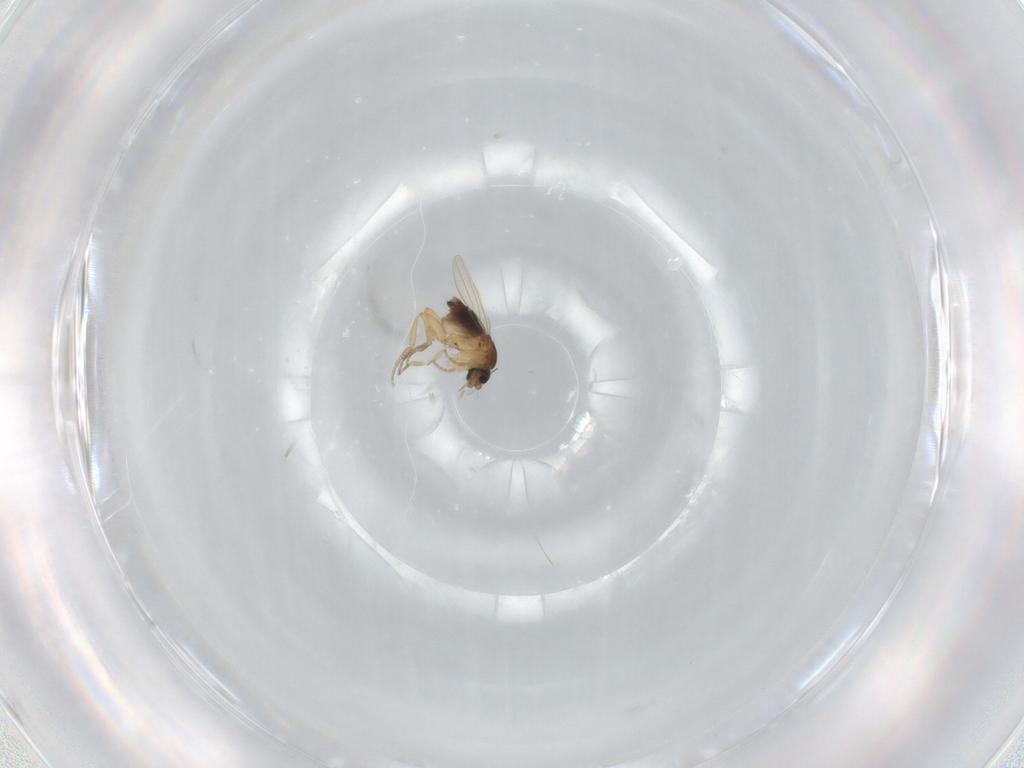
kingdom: Animalia
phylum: Arthropoda
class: Insecta
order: Diptera
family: Phoridae
